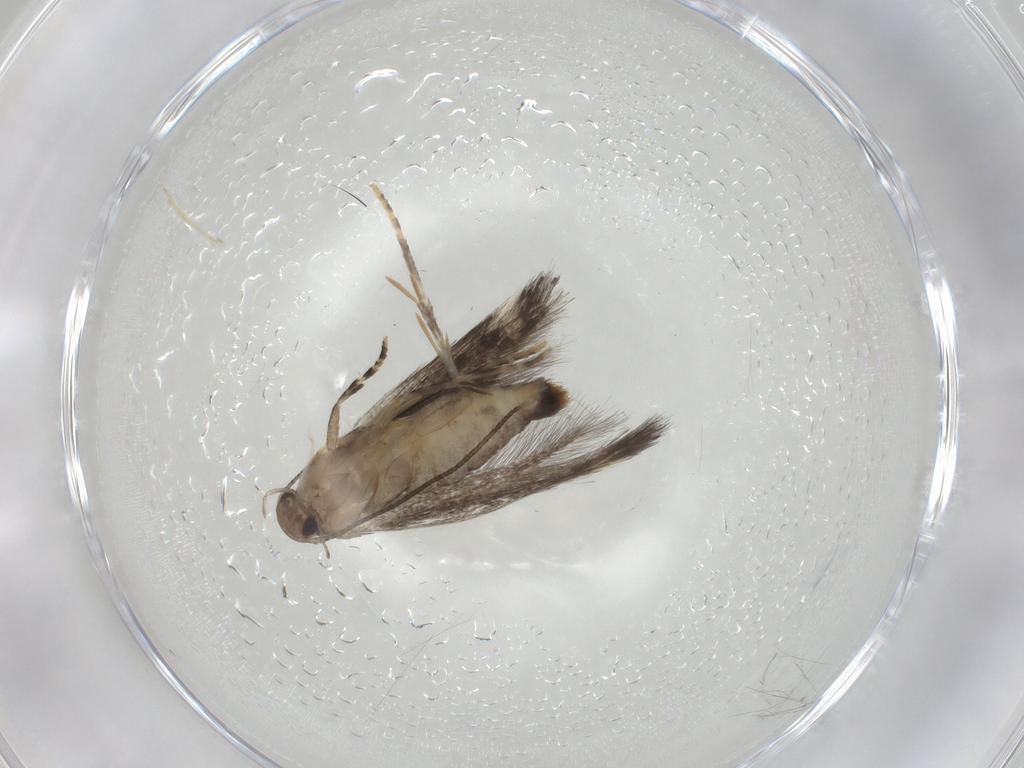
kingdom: Animalia
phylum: Arthropoda
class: Insecta
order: Lepidoptera
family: Elachistidae
